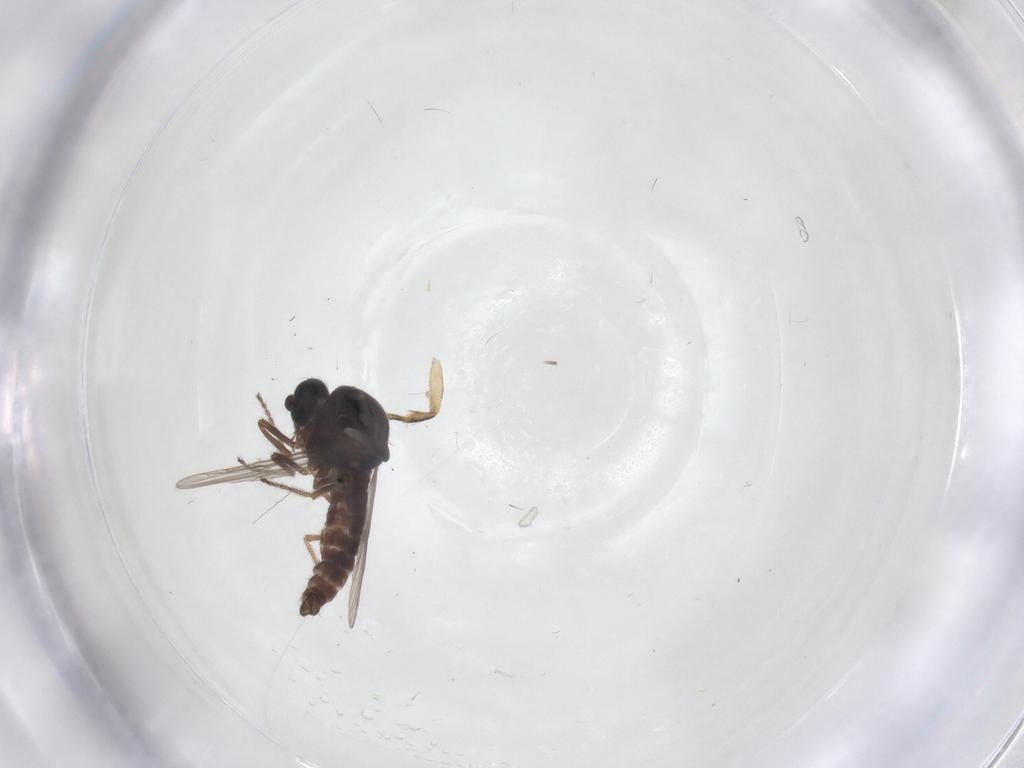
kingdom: Animalia
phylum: Arthropoda
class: Insecta
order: Diptera
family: Ceratopogonidae
